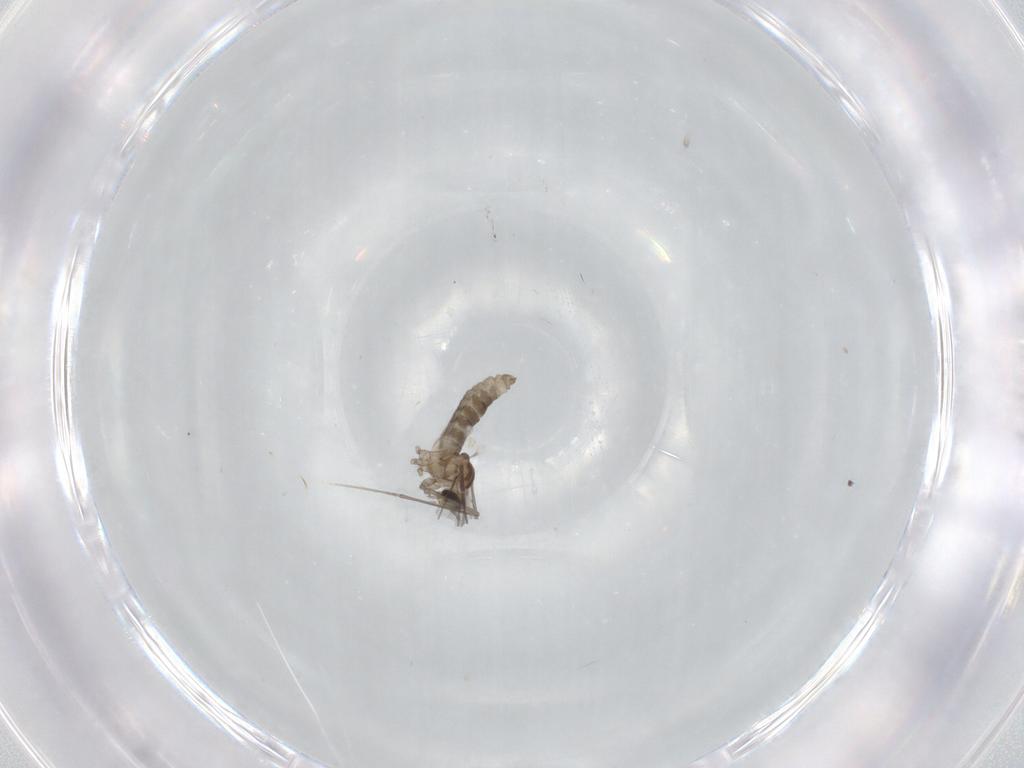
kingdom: Animalia
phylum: Arthropoda
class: Insecta
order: Diptera
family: Cecidomyiidae
